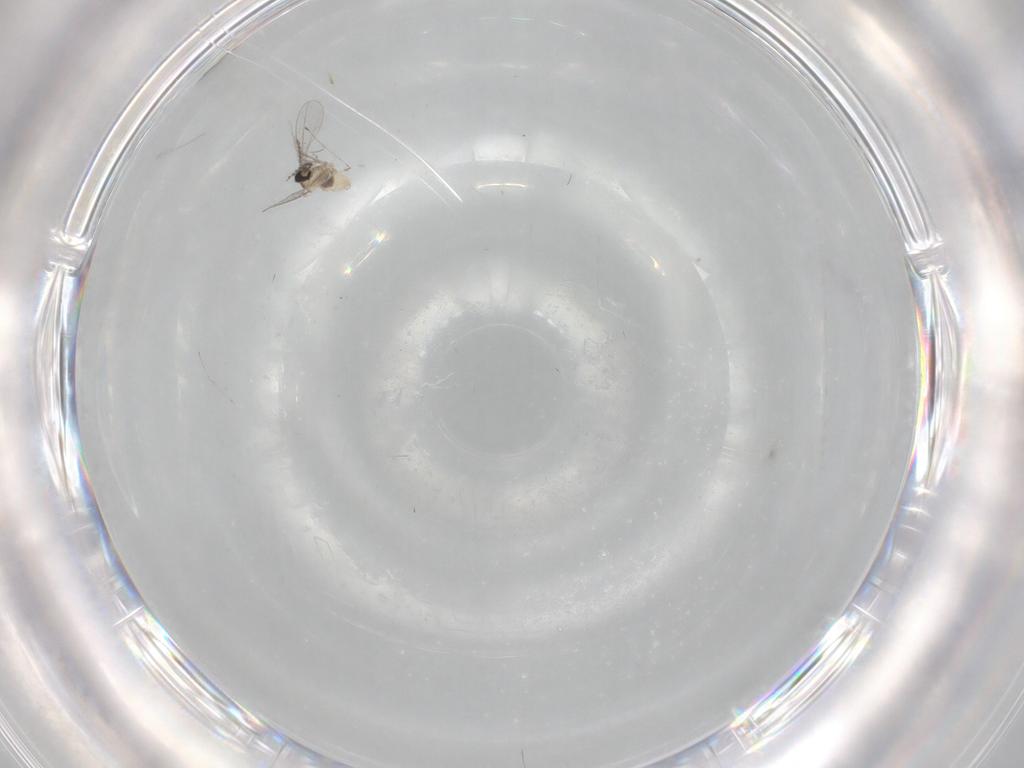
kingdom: Animalia
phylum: Arthropoda
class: Insecta
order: Diptera
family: Cecidomyiidae
